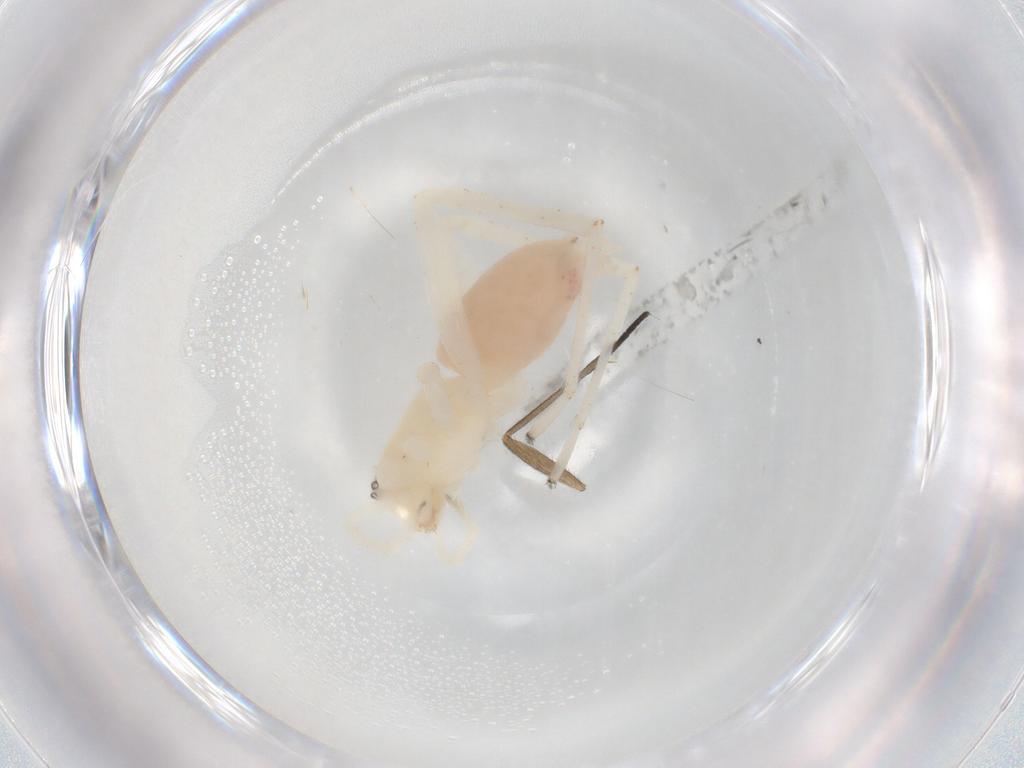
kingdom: Animalia
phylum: Arthropoda
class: Arachnida
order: Araneae
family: Anyphaenidae
